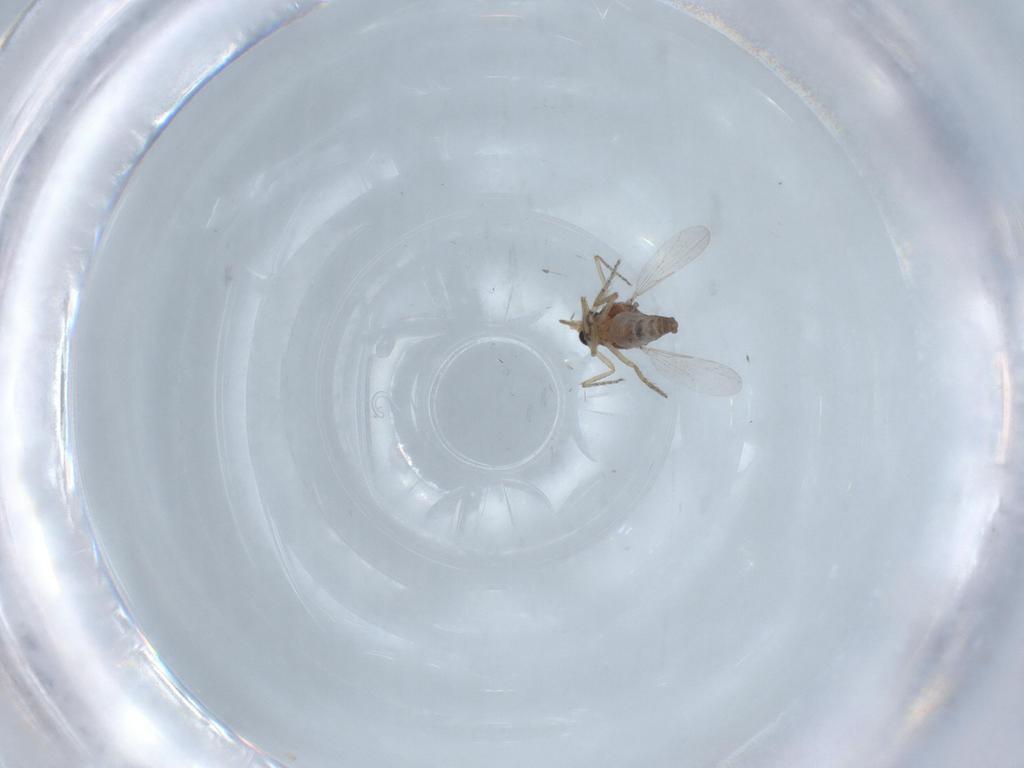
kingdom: Animalia
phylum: Arthropoda
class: Insecta
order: Diptera
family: Ceratopogonidae
